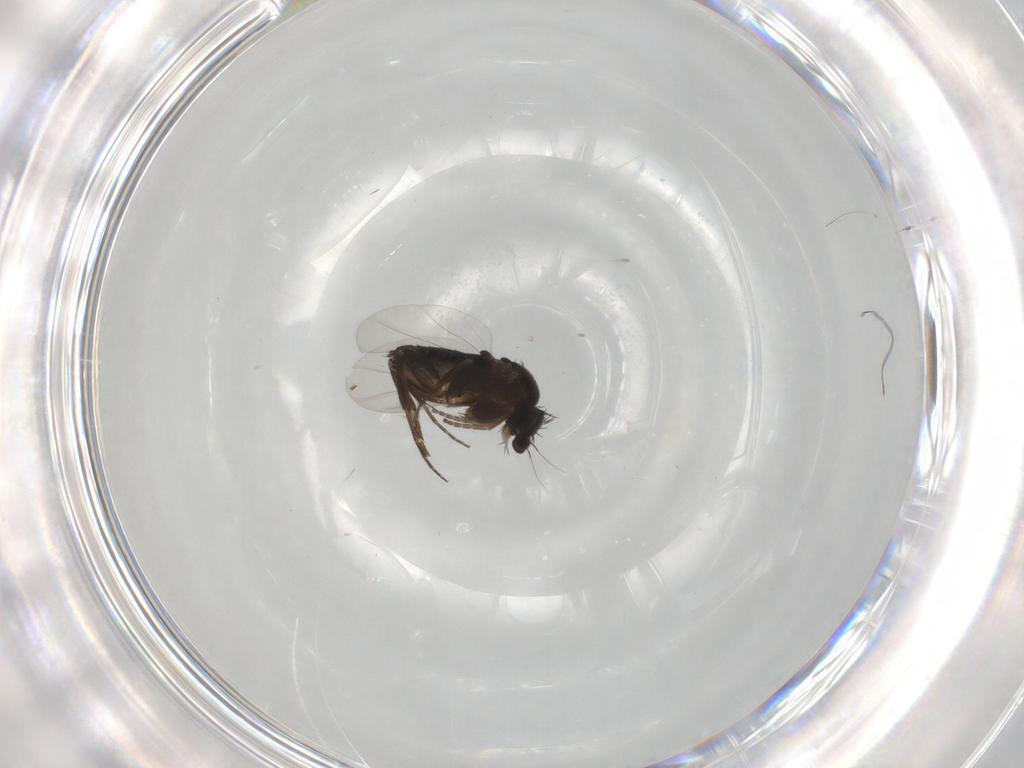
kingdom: Animalia
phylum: Arthropoda
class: Insecta
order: Diptera
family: Phoridae
